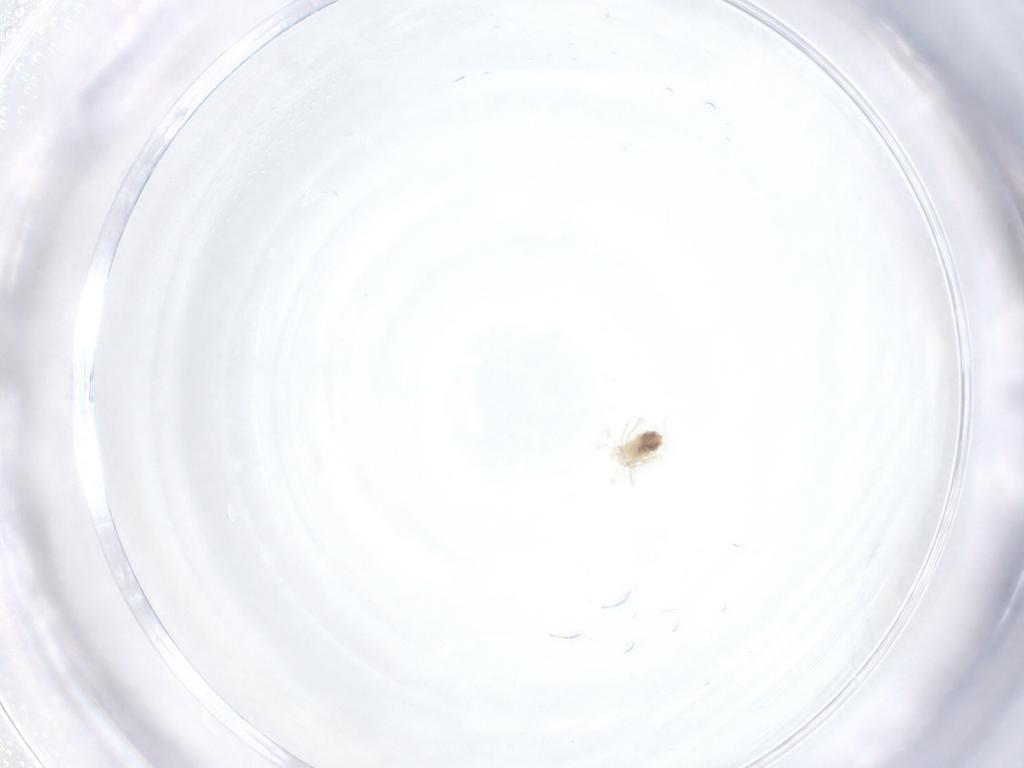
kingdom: Animalia
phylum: Arthropoda
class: Arachnida
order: Trombidiformes
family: Anystidae
